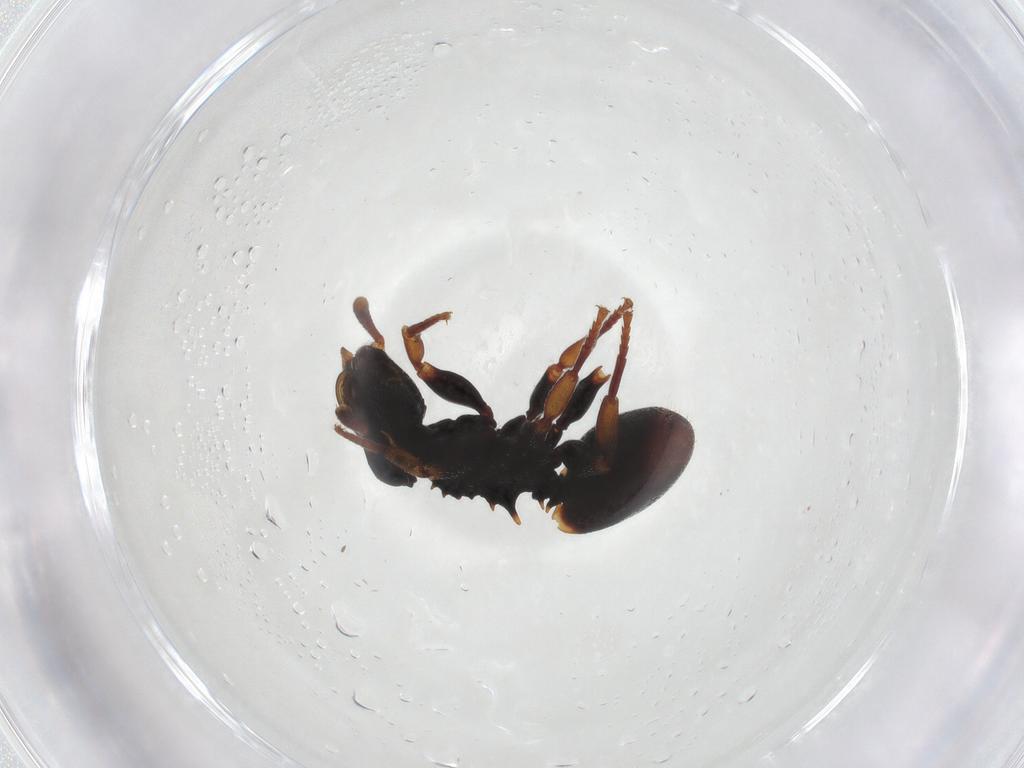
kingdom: Animalia
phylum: Arthropoda
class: Insecta
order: Hymenoptera
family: Formicidae
